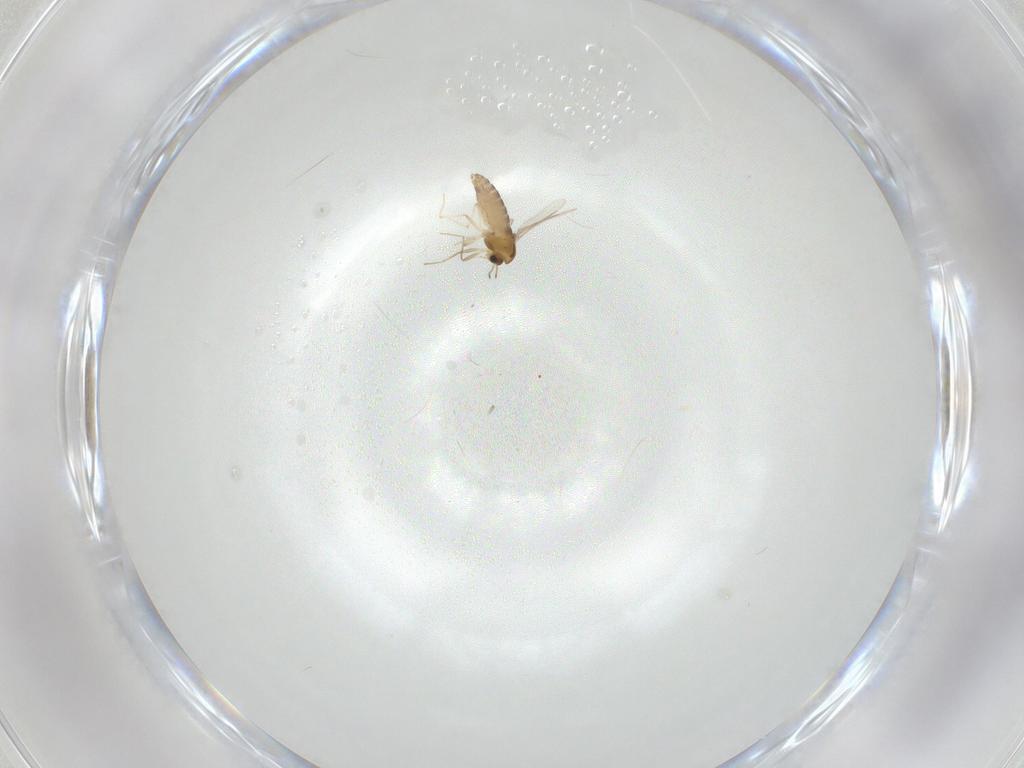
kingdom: Animalia
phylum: Arthropoda
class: Insecta
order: Diptera
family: Chironomidae
